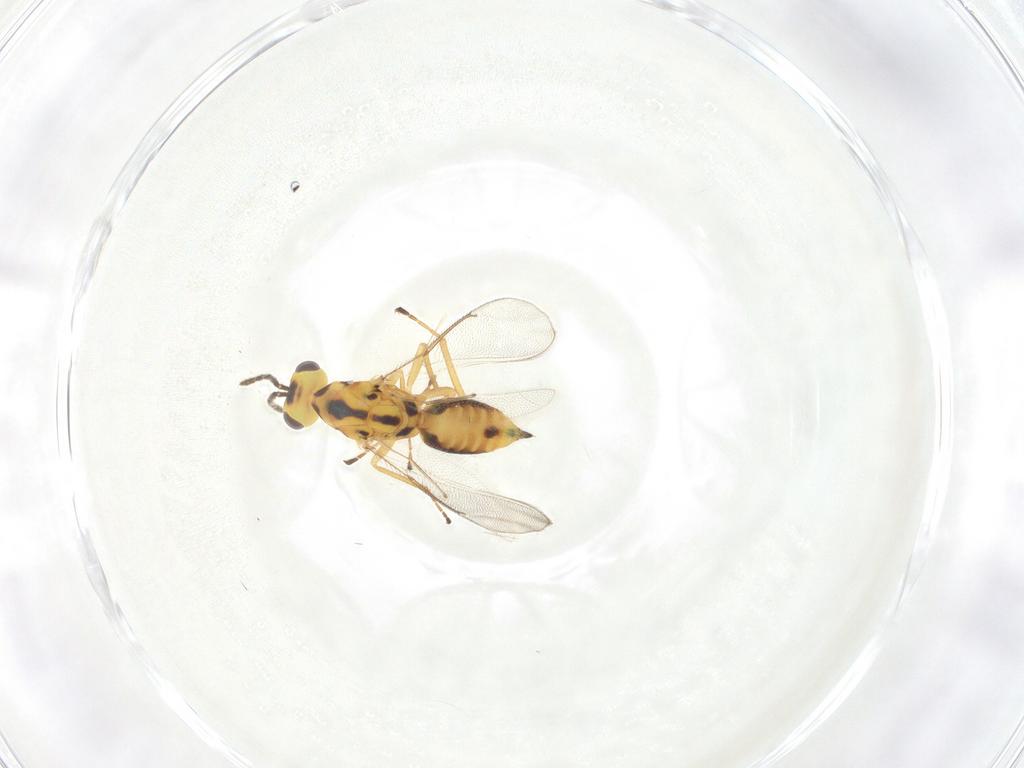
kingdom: Animalia
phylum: Arthropoda
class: Insecta
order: Hymenoptera
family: Eulophidae
